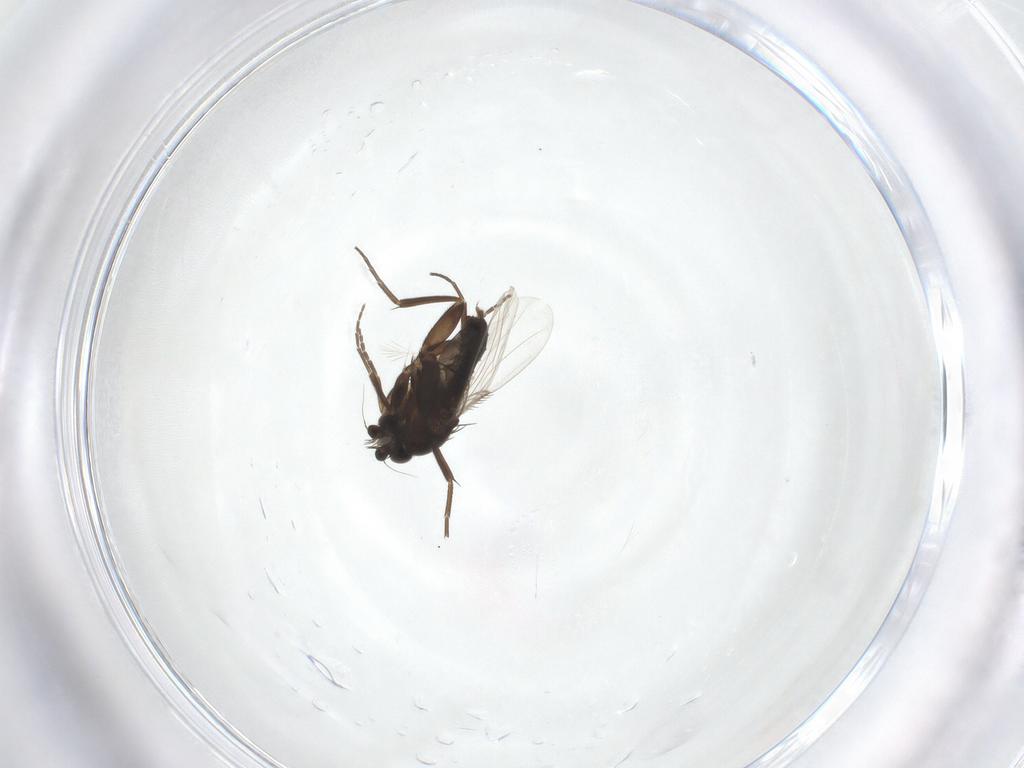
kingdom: Animalia
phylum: Arthropoda
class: Insecta
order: Diptera
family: Phoridae
